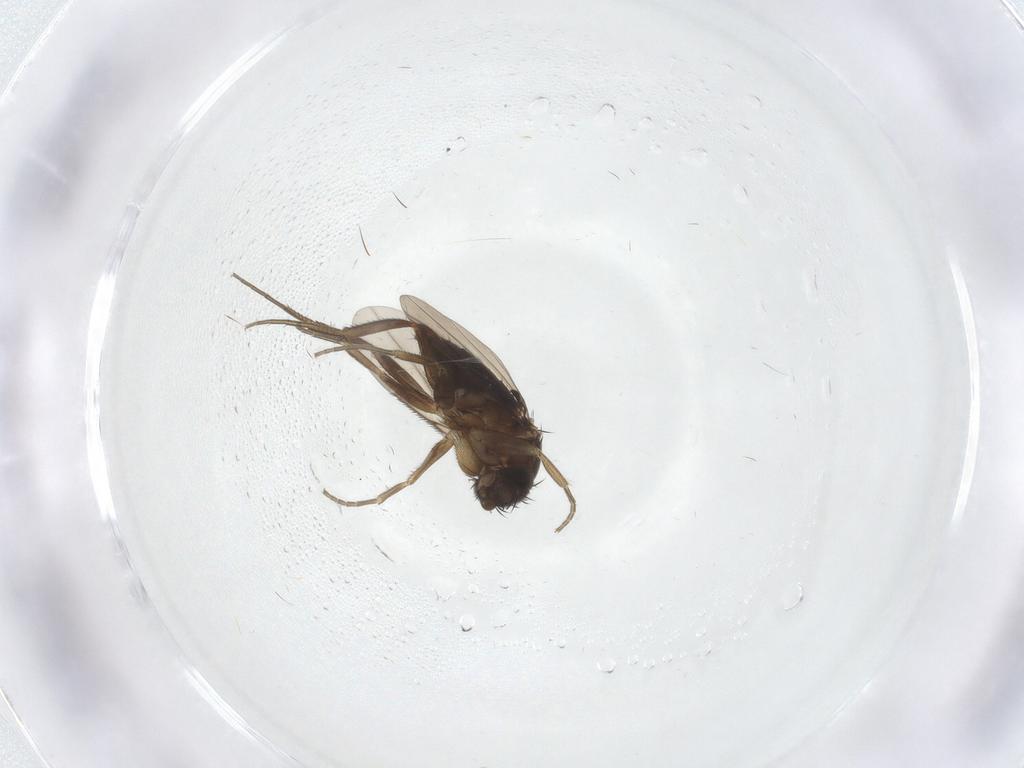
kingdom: Animalia
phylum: Arthropoda
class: Insecta
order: Diptera
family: Phoridae
